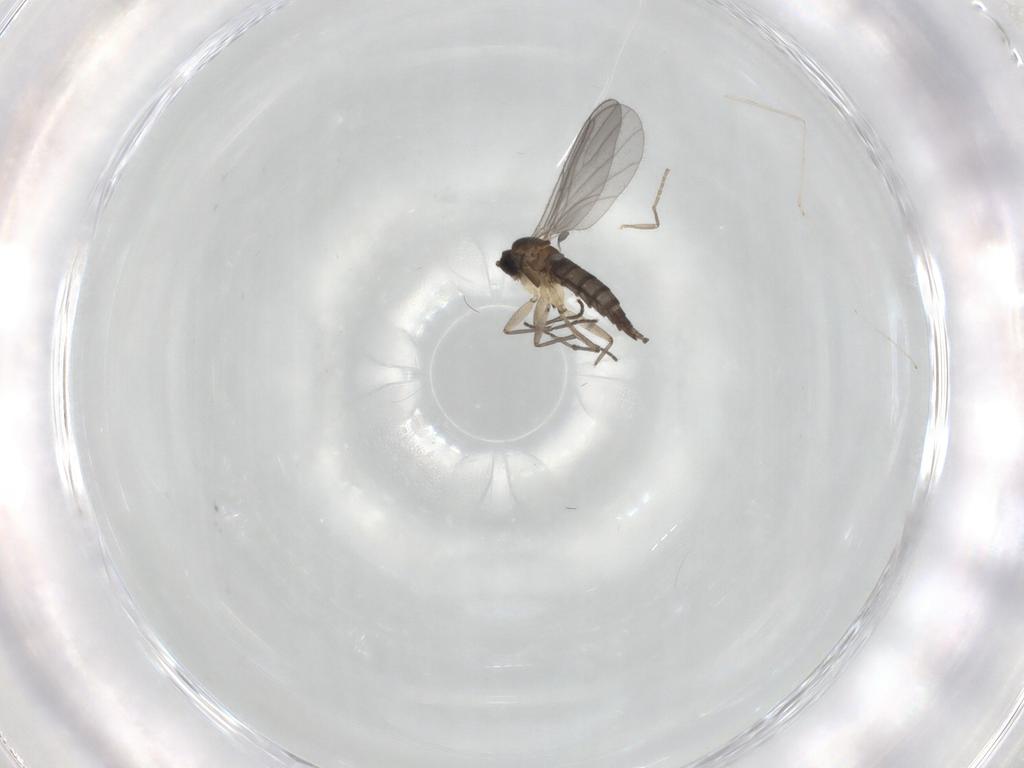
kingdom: Animalia
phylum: Arthropoda
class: Insecta
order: Diptera
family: Sciaridae
